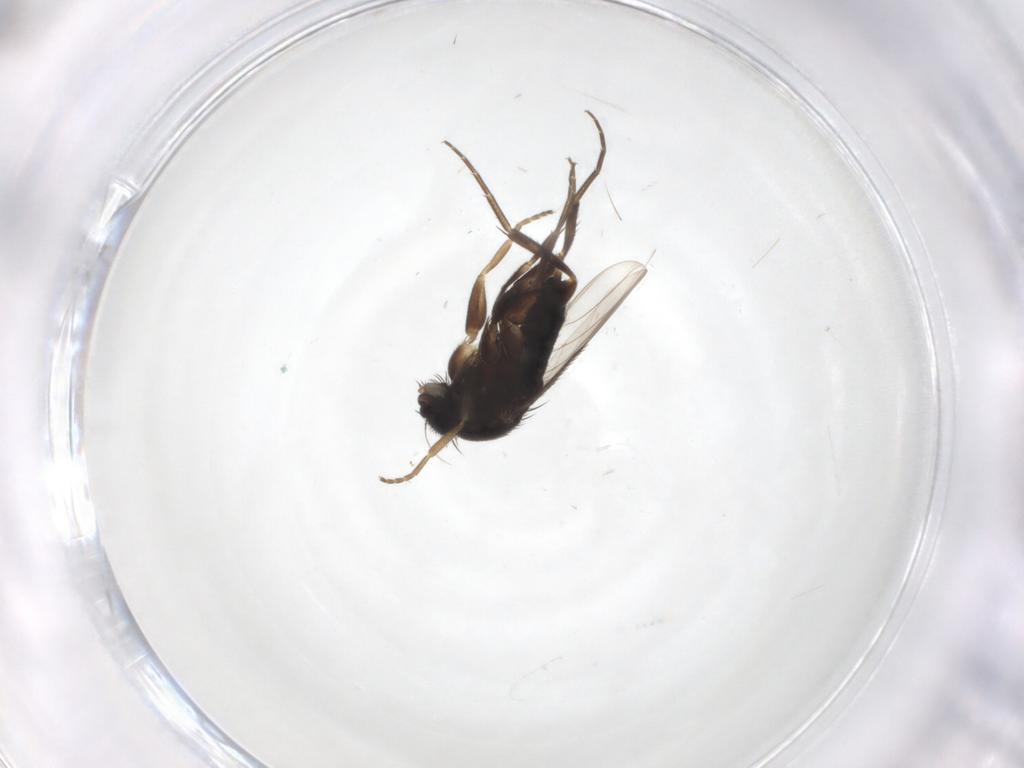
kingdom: Animalia
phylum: Arthropoda
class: Insecta
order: Diptera
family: Phoridae
